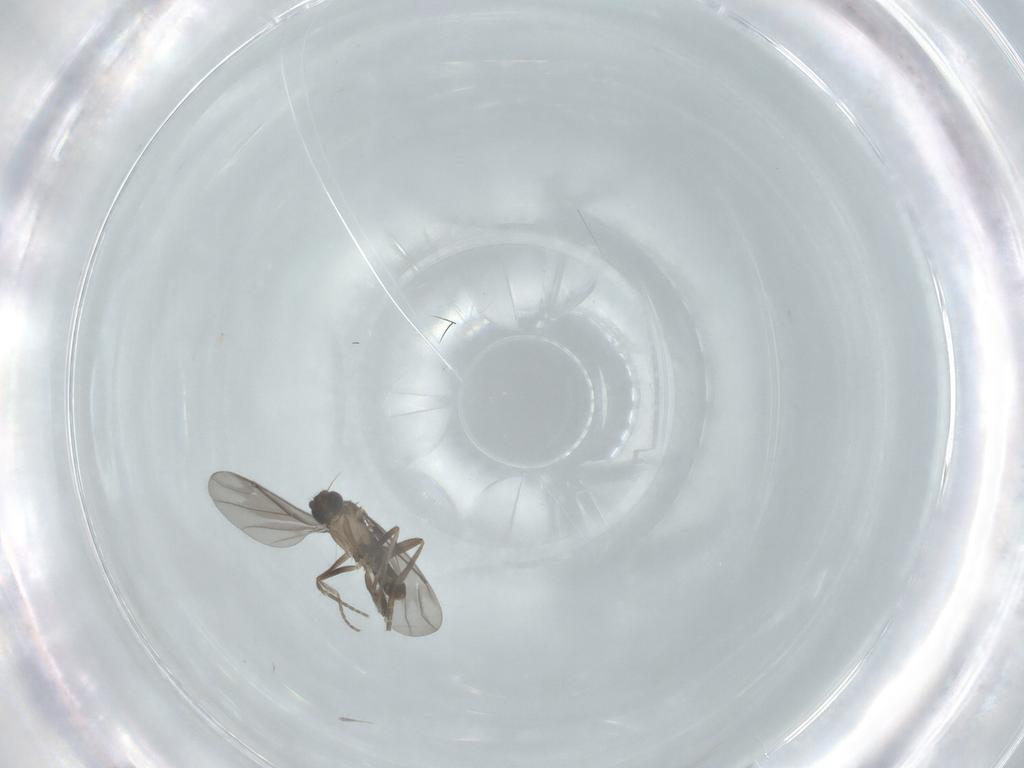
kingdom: Animalia
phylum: Arthropoda
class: Insecta
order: Diptera
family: Phoridae
